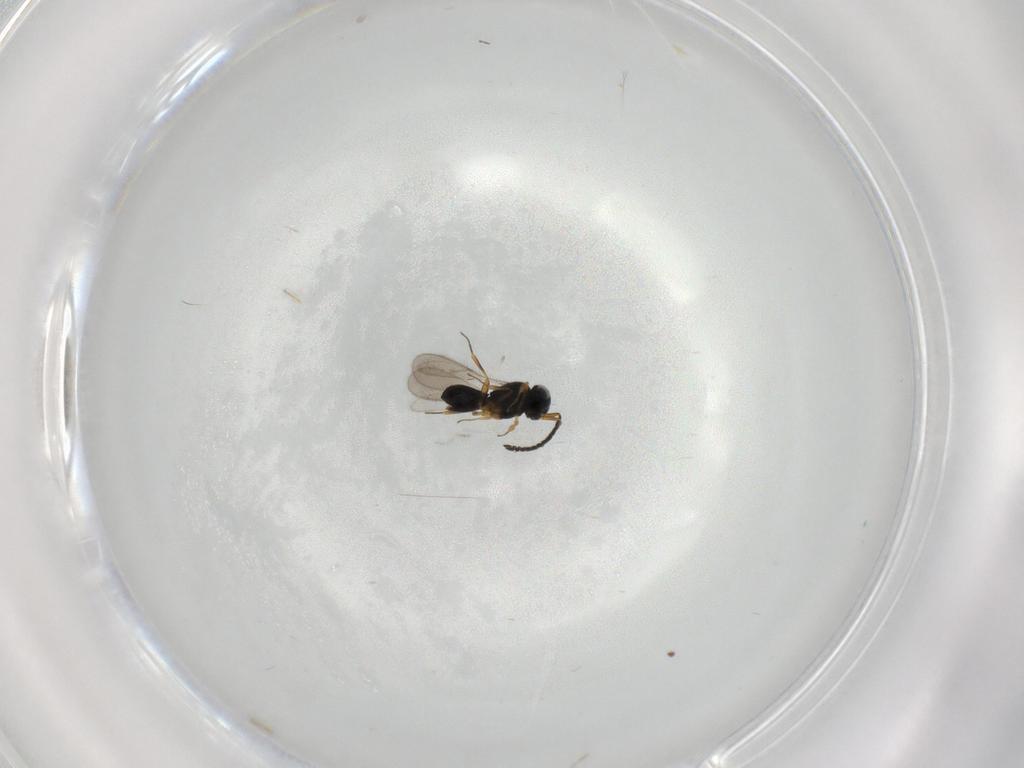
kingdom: Animalia
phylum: Arthropoda
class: Insecta
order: Hymenoptera
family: Scelionidae
